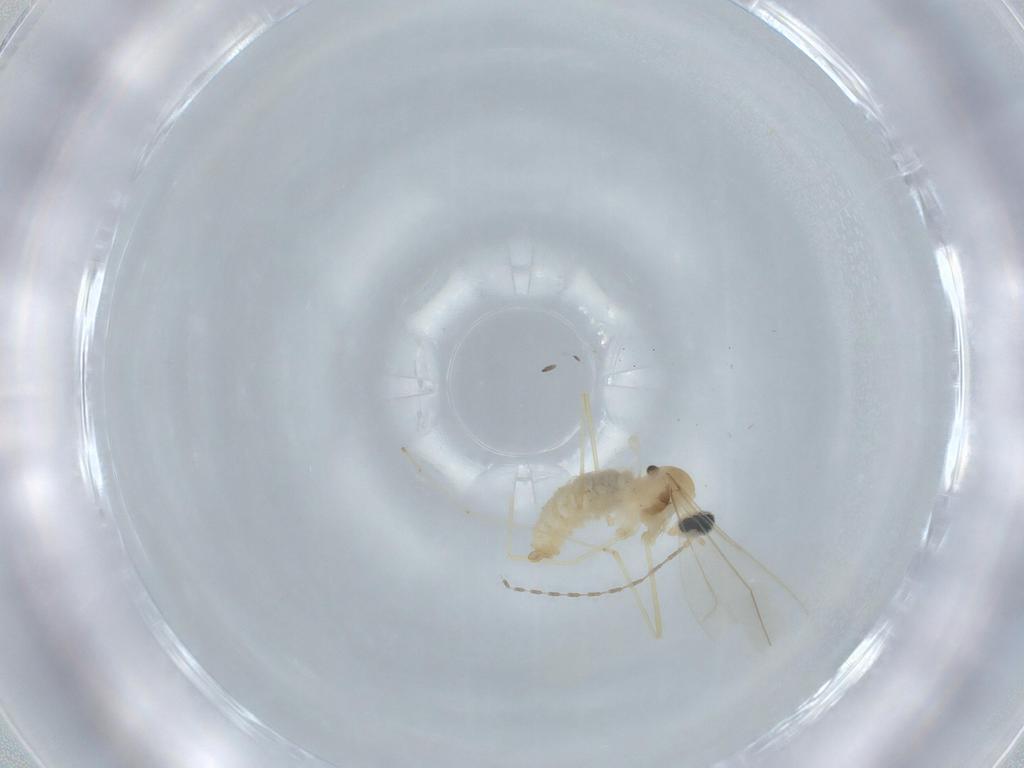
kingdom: Animalia
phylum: Arthropoda
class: Insecta
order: Diptera
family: Cecidomyiidae
